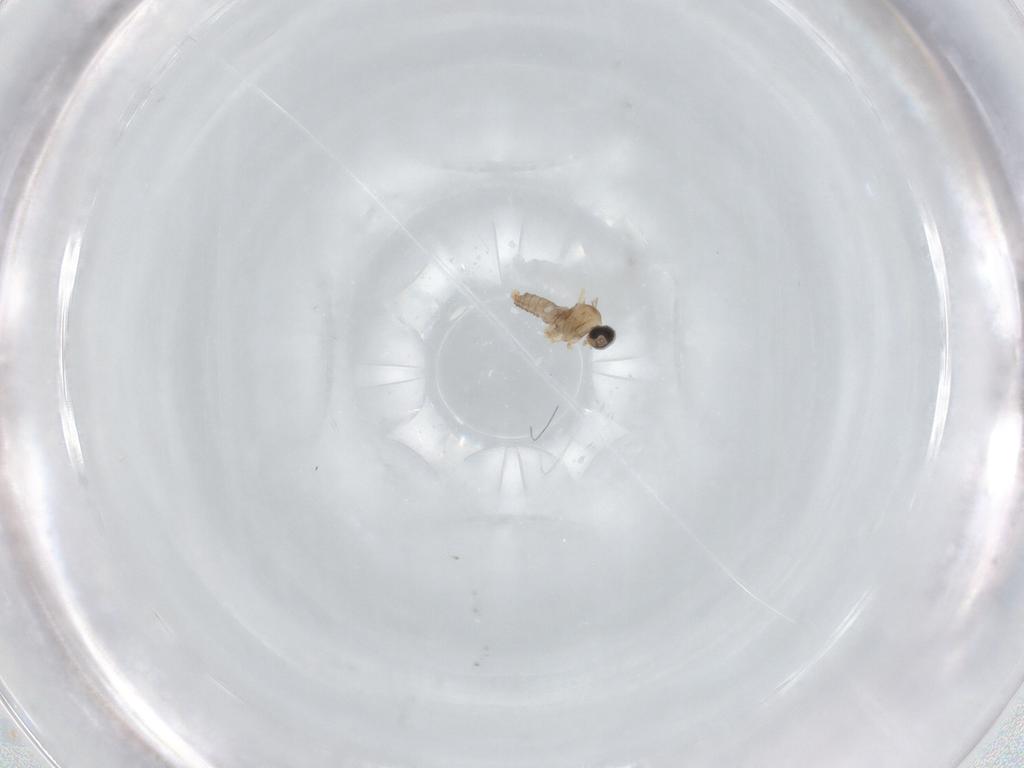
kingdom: Animalia
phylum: Arthropoda
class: Insecta
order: Diptera
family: Cecidomyiidae
